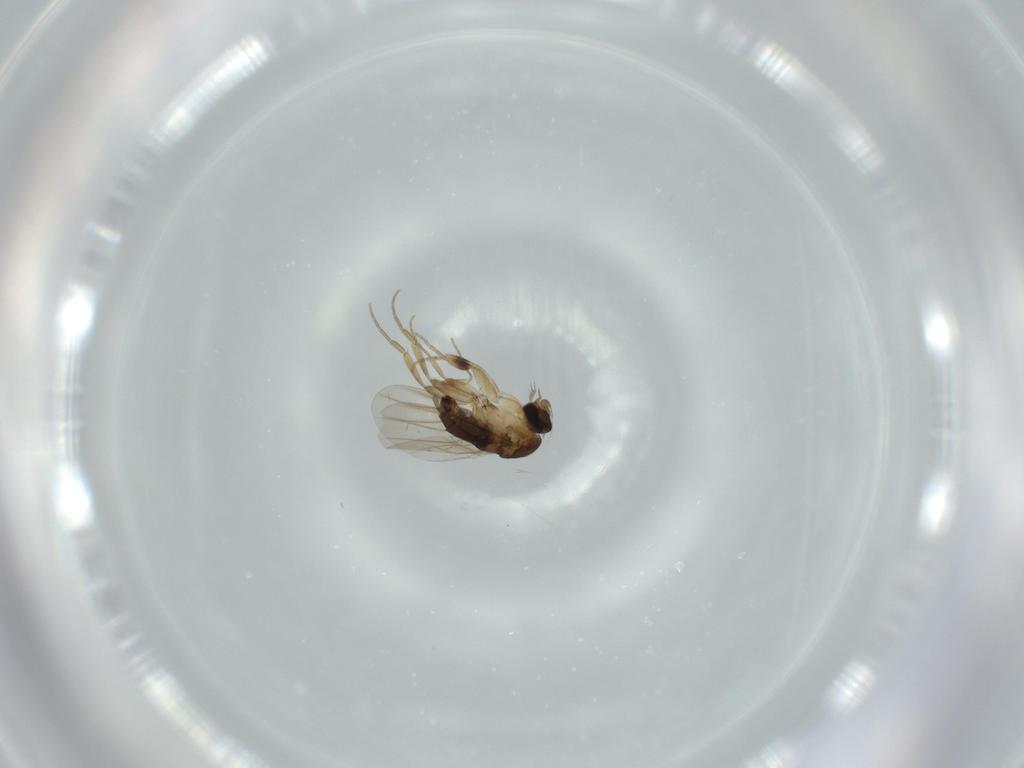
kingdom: Animalia
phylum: Arthropoda
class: Insecta
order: Diptera
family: Phoridae
